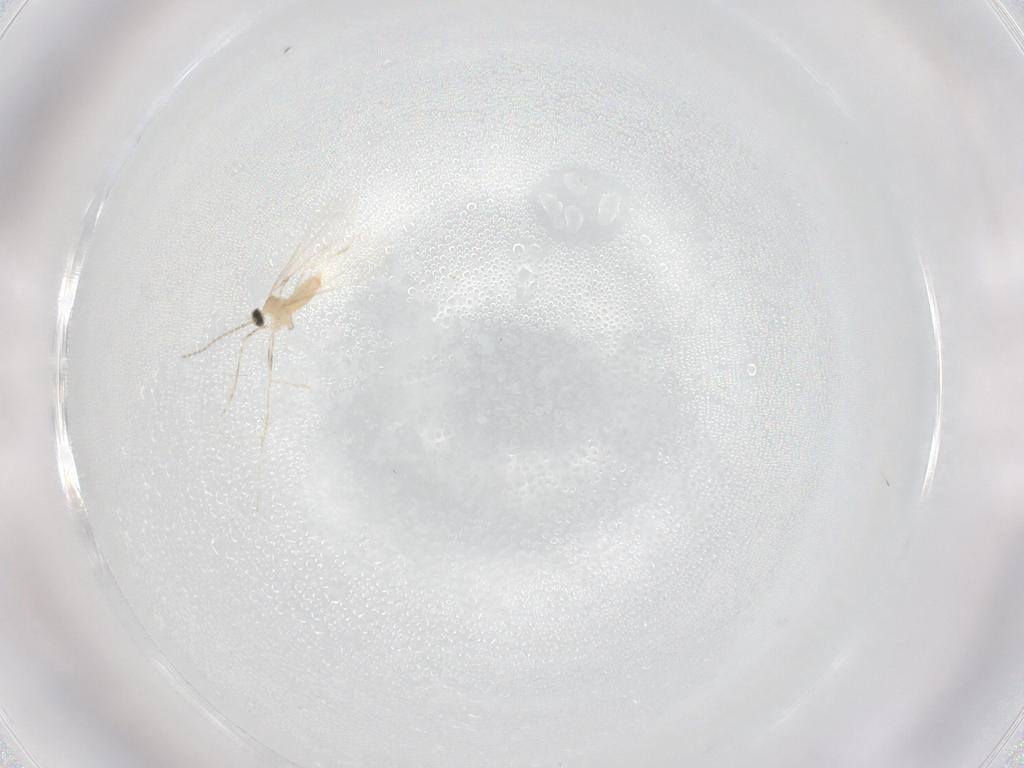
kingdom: Animalia
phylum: Arthropoda
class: Insecta
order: Diptera
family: Cecidomyiidae
